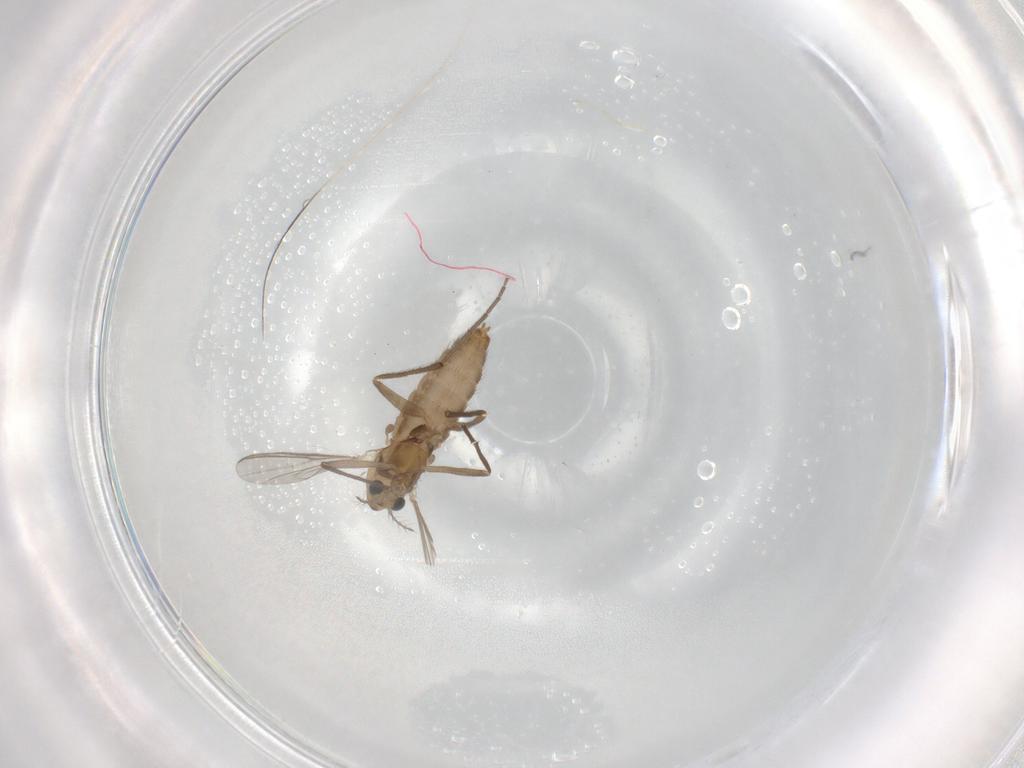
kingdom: Animalia
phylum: Arthropoda
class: Insecta
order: Diptera
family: Chironomidae
